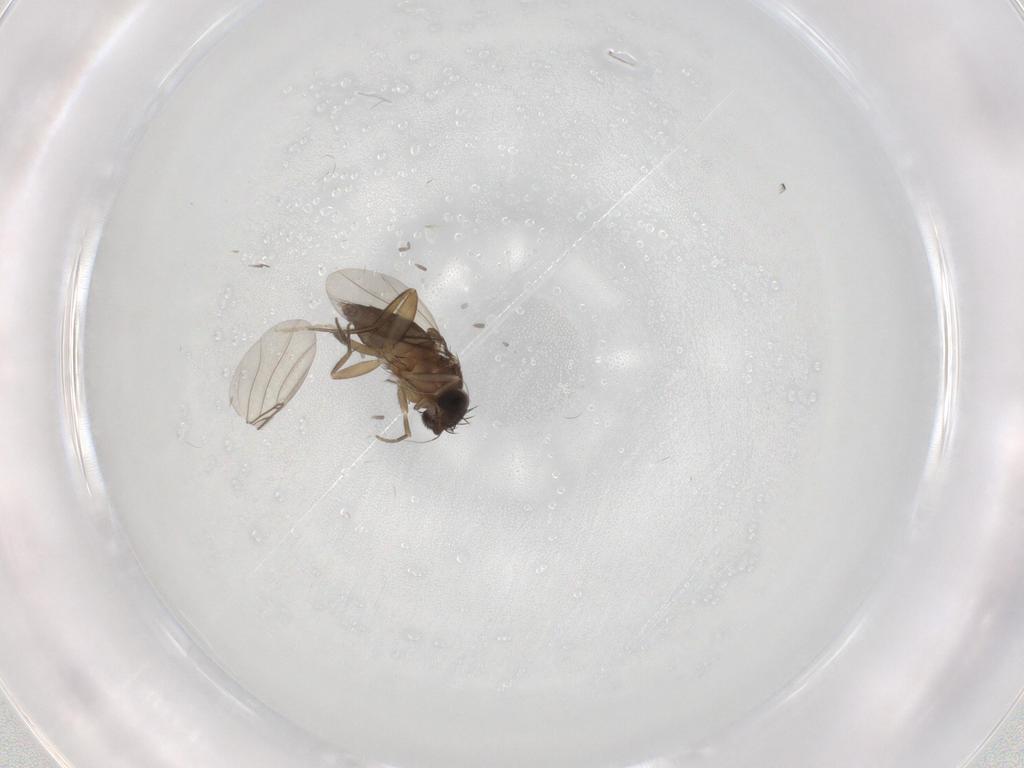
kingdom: Animalia
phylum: Arthropoda
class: Insecta
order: Diptera
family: Phoridae
